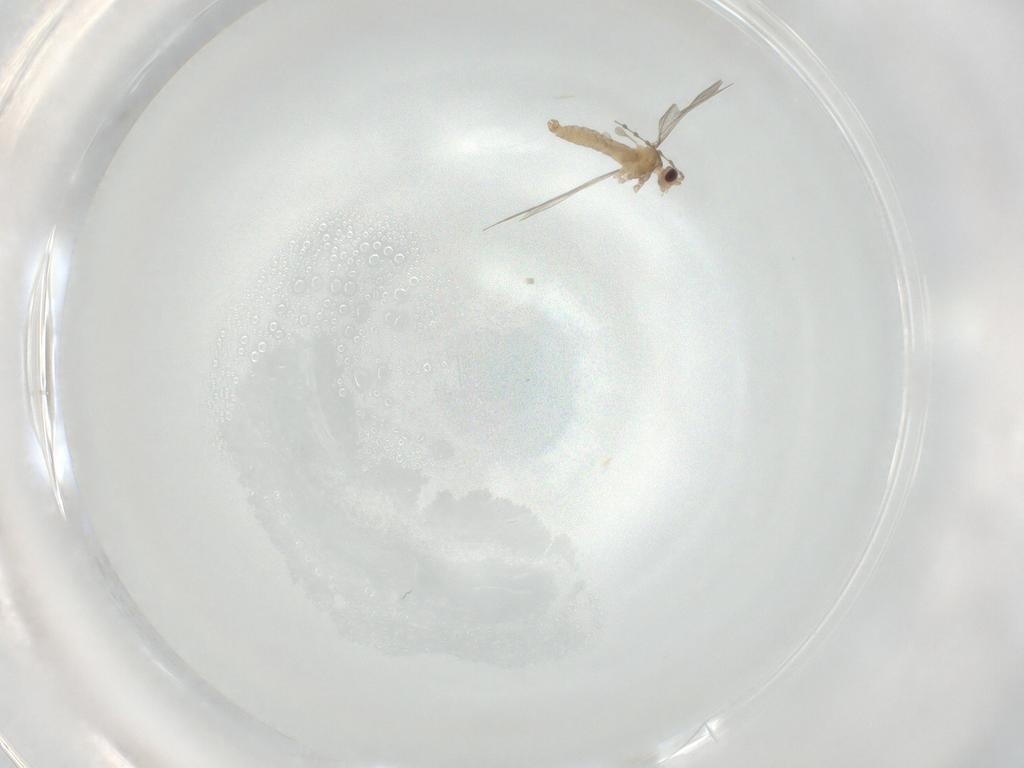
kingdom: Animalia
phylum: Arthropoda
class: Insecta
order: Diptera
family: Cecidomyiidae
